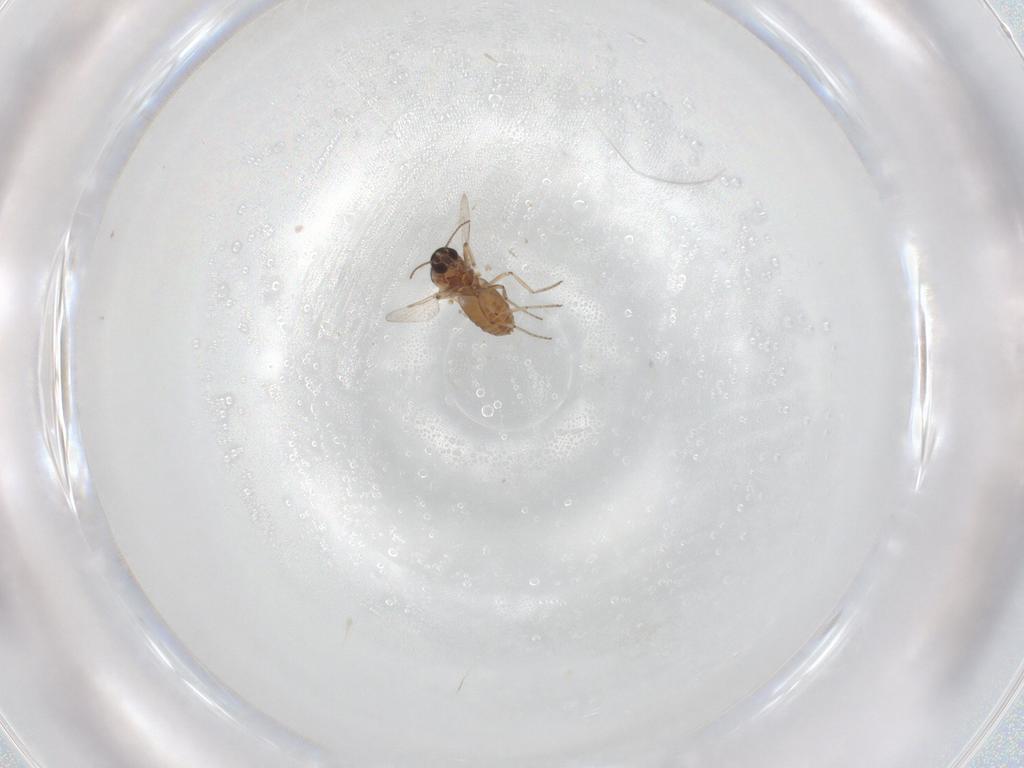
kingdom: Animalia
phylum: Arthropoda
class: Insecta
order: Diptera
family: Ceratopogonidae
